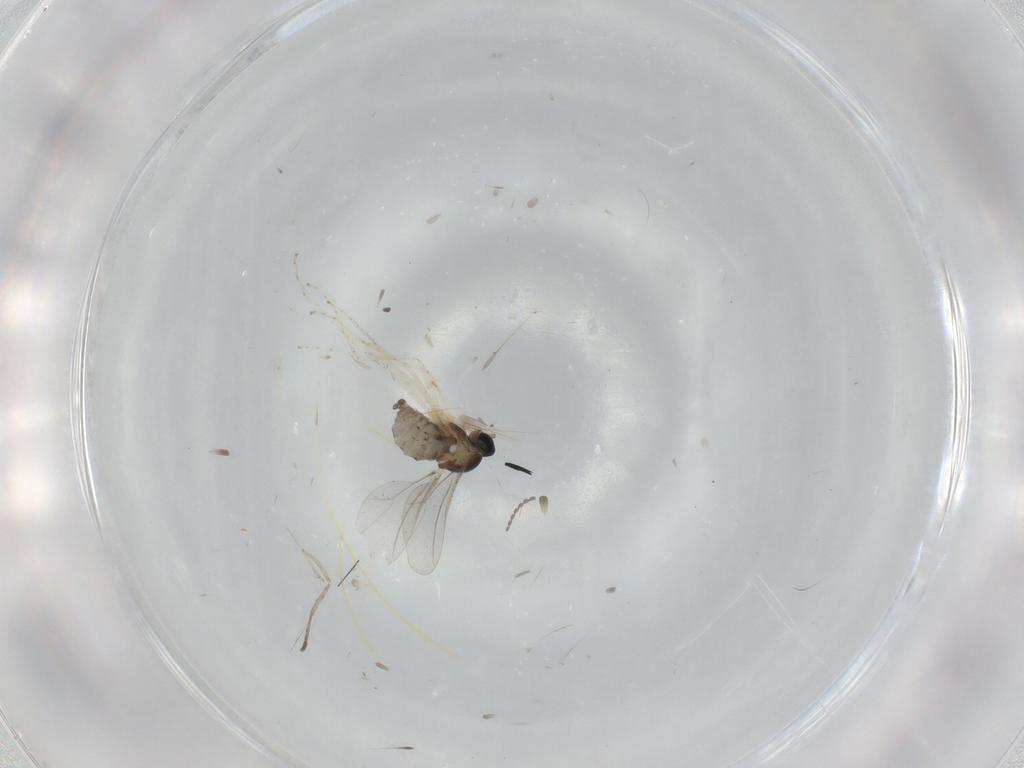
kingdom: Animalia
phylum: Arthropoda
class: Insecta
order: Diptera
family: Cecidomyiidae
